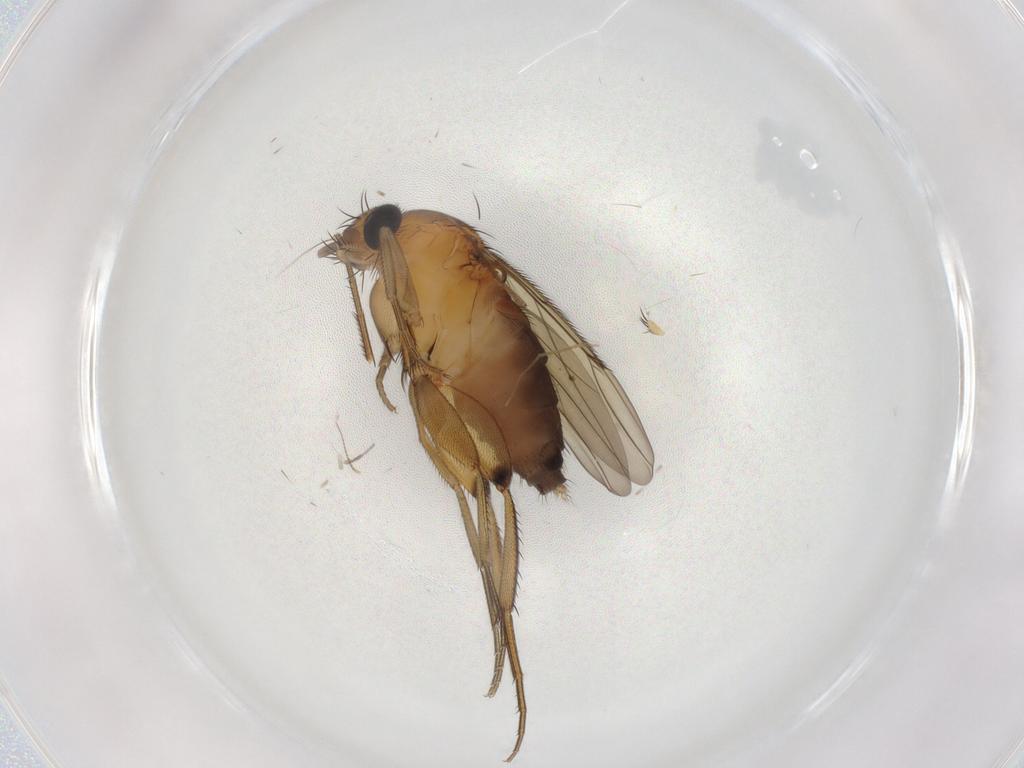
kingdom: Animalia
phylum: Arthropoda
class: Insecta
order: Diptera
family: Phoridae
